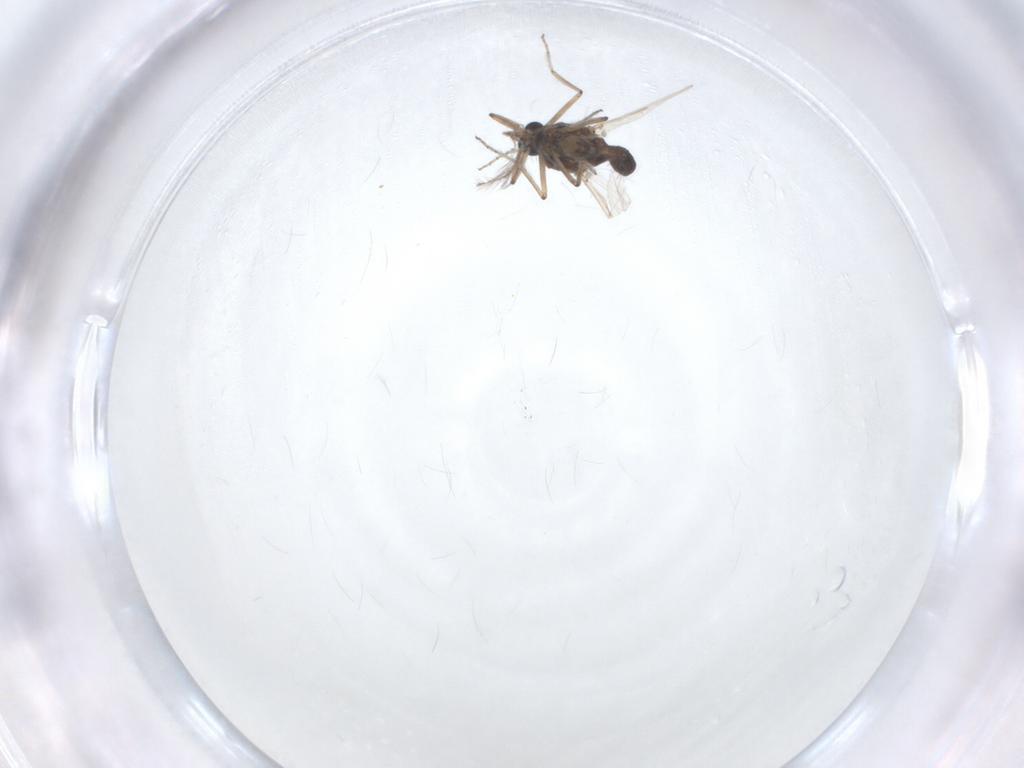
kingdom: Animalia
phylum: Arthropoda
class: Insecta
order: Diptera
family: Ceratopogonidae
